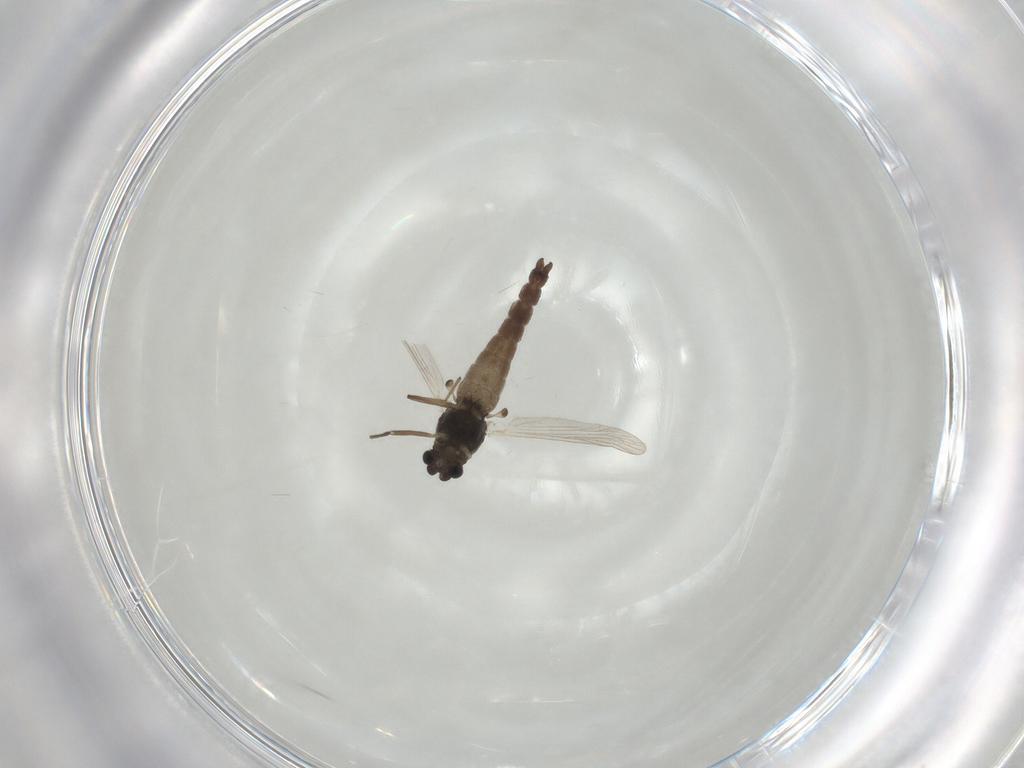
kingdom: Animalia
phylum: Arthropoda
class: Insecta
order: Diptera
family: Chironomidae
